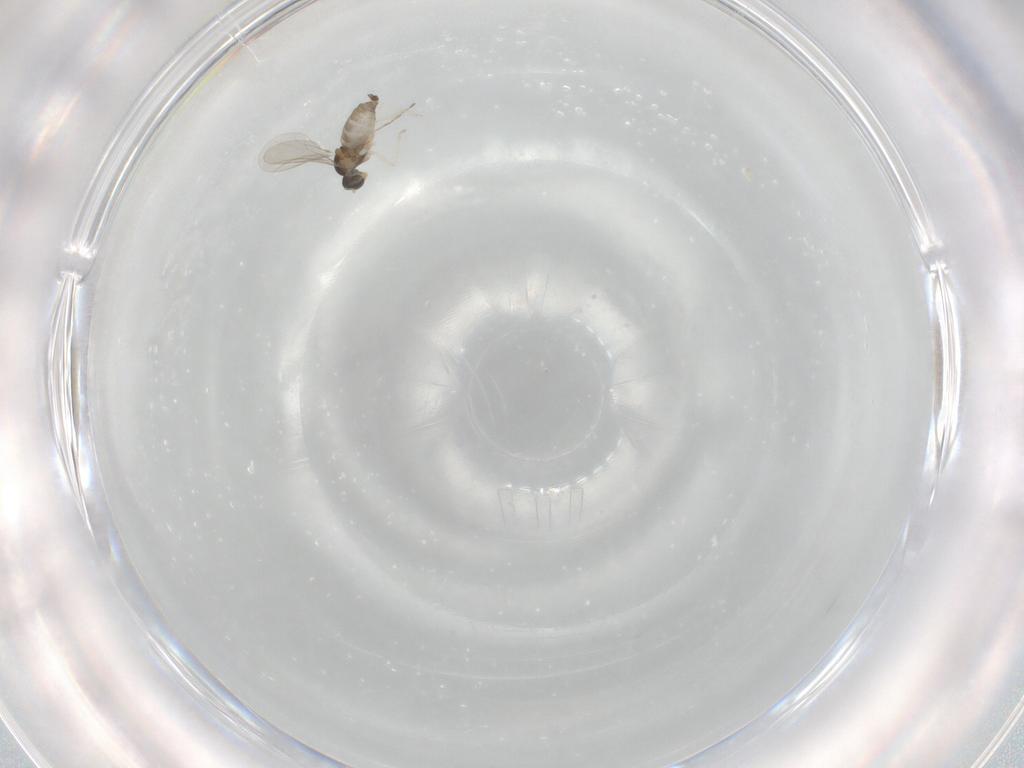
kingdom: Animalia
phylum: Arthropoda
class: Insecta
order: Diptera
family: Cecidomyiidae
